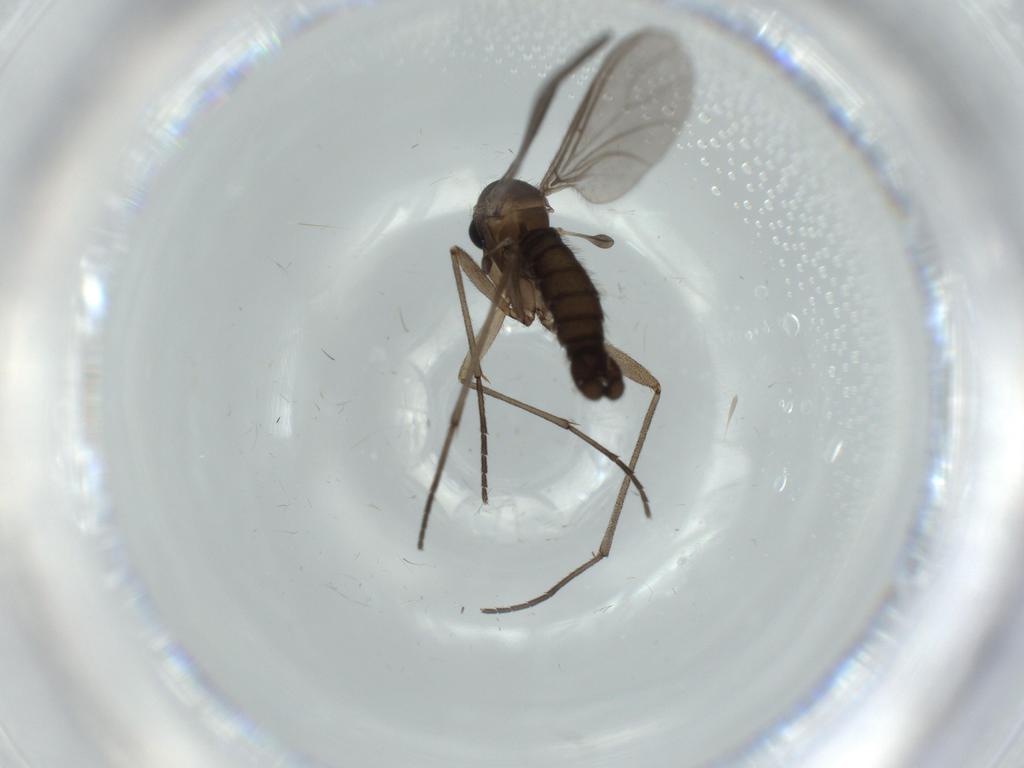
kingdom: Animalia
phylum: Arthropoda
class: Insecta
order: Diptera
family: Sciaridae
